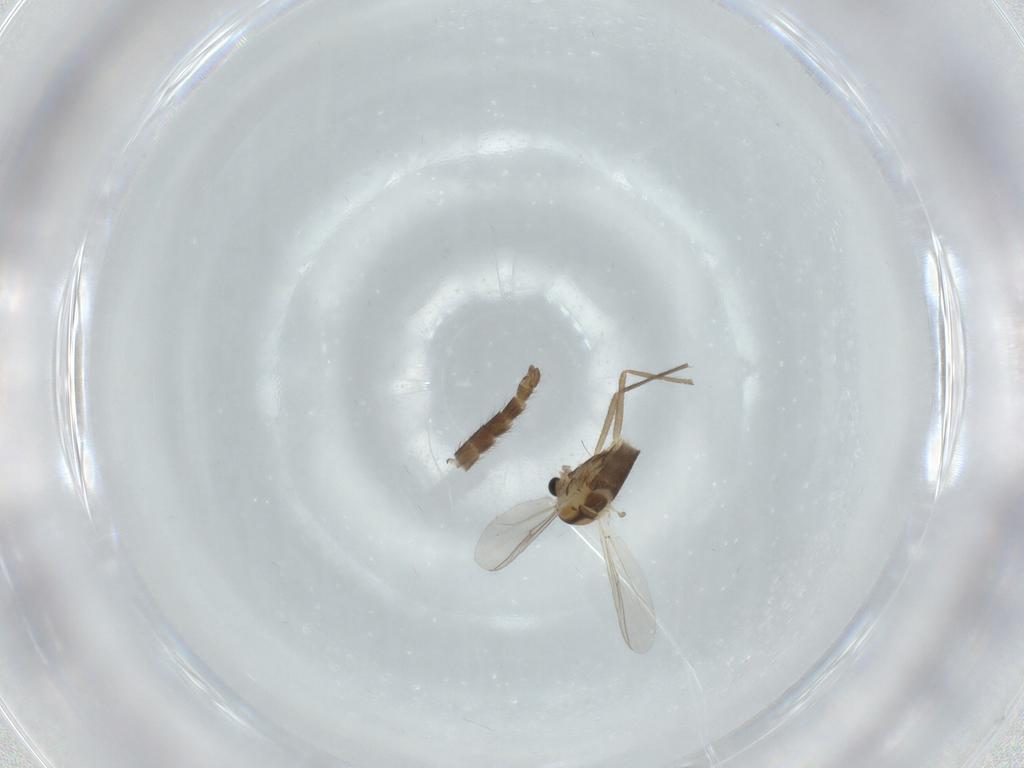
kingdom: Animalia
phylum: Arthropoda
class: Insecta
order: Diptera
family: Chironomidae
